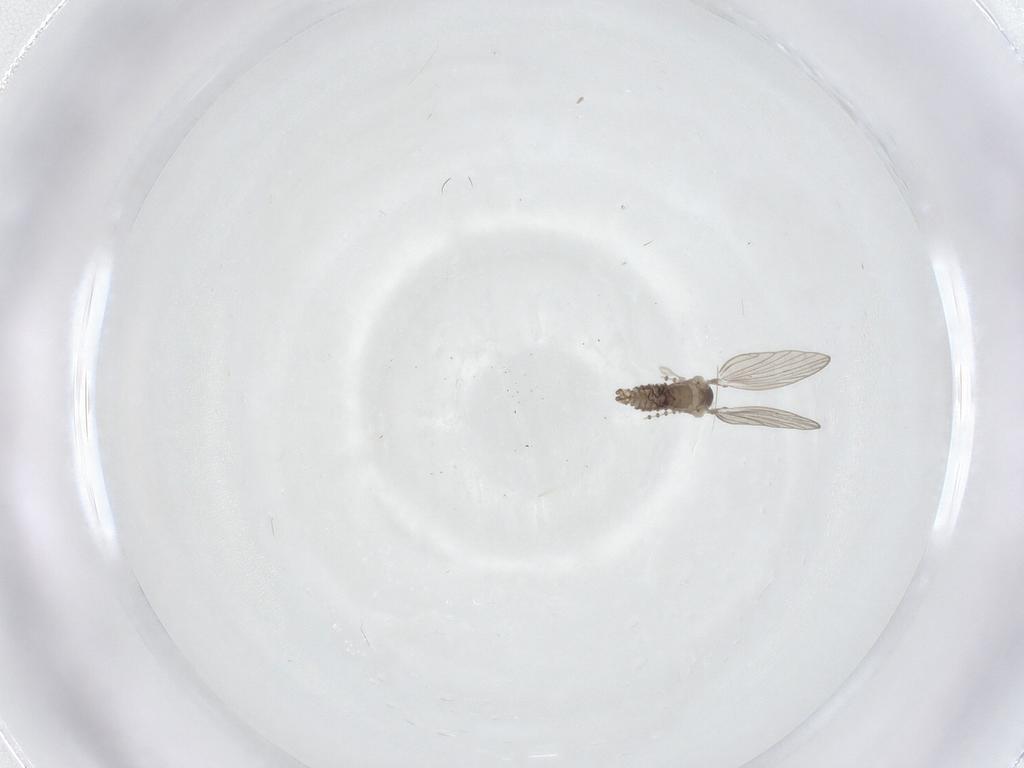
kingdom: Animalia
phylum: Arthropoda
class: Insecta
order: Diptera
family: Psychodidae
